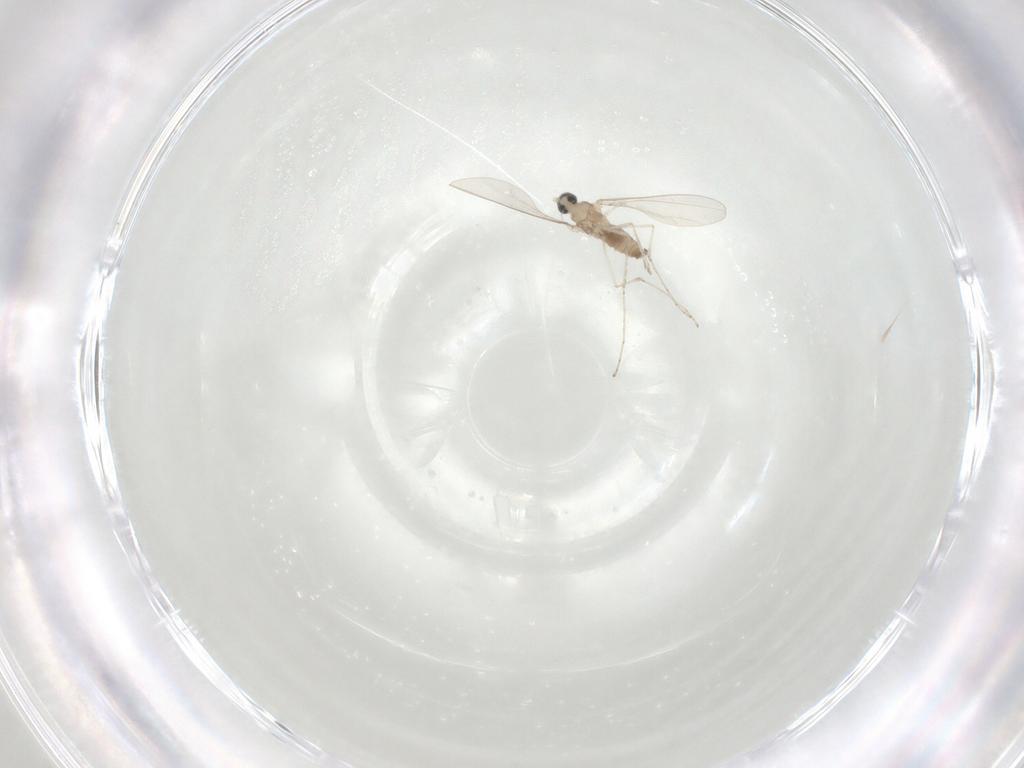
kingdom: Animalia
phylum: Arthropoda
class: Insecta
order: Diptera
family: Cecidomyiidae
